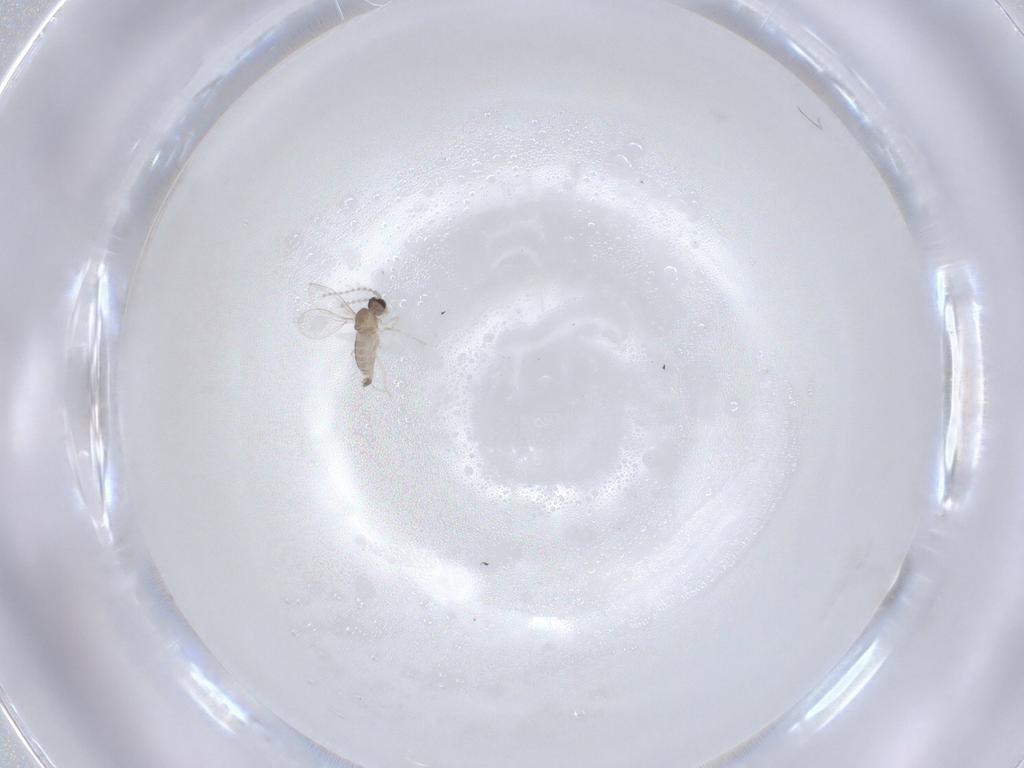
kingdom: Animalia
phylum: Arthropoda
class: Insecta
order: Diptera
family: Cecidomyiidae
